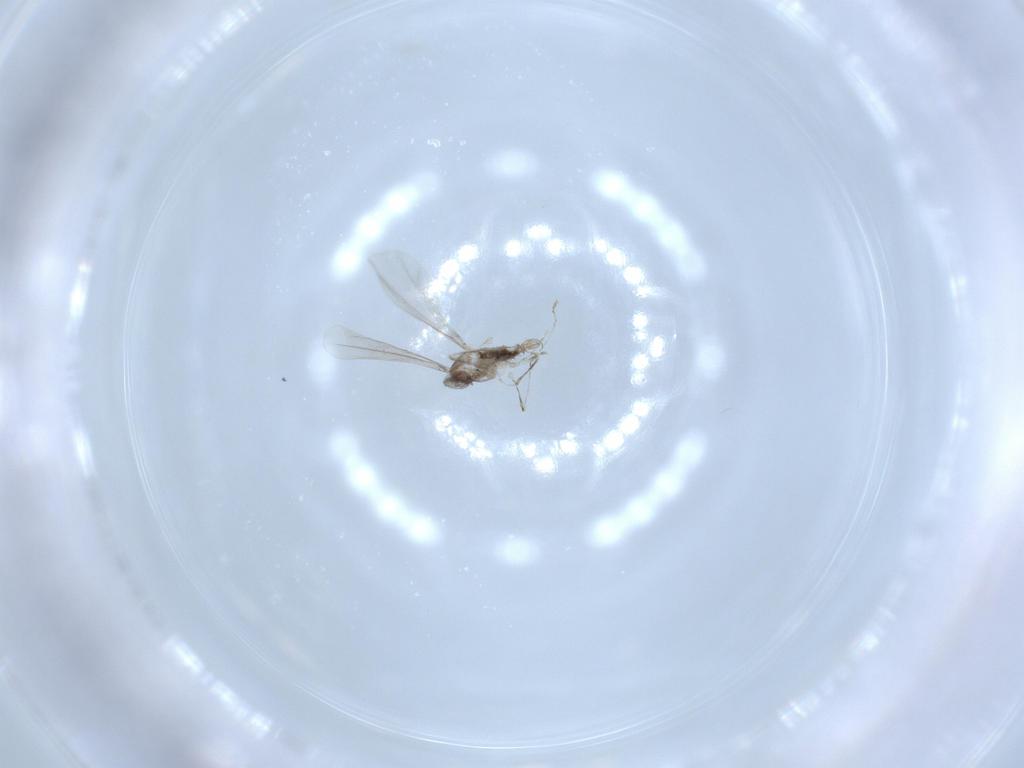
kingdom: Animalia
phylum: Arthropoda
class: Insecta
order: Diptera
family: Cecidomyiidae
